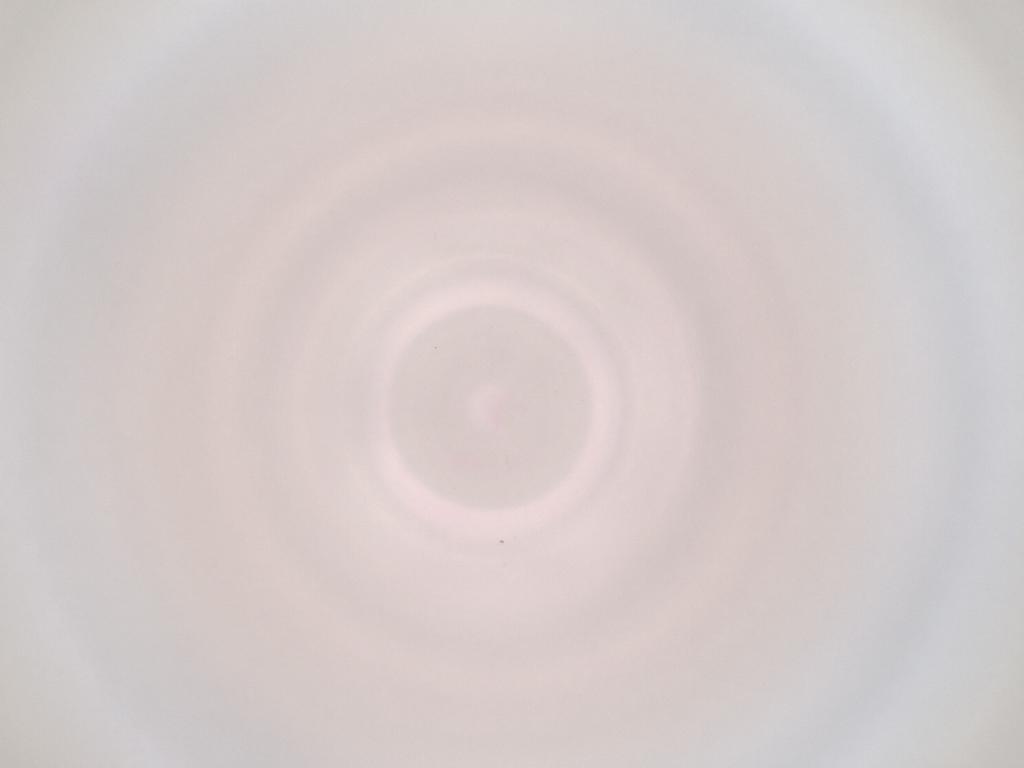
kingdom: Animalia
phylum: Arthropoda
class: Insecta
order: Diptera
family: Cecidomyiidae
